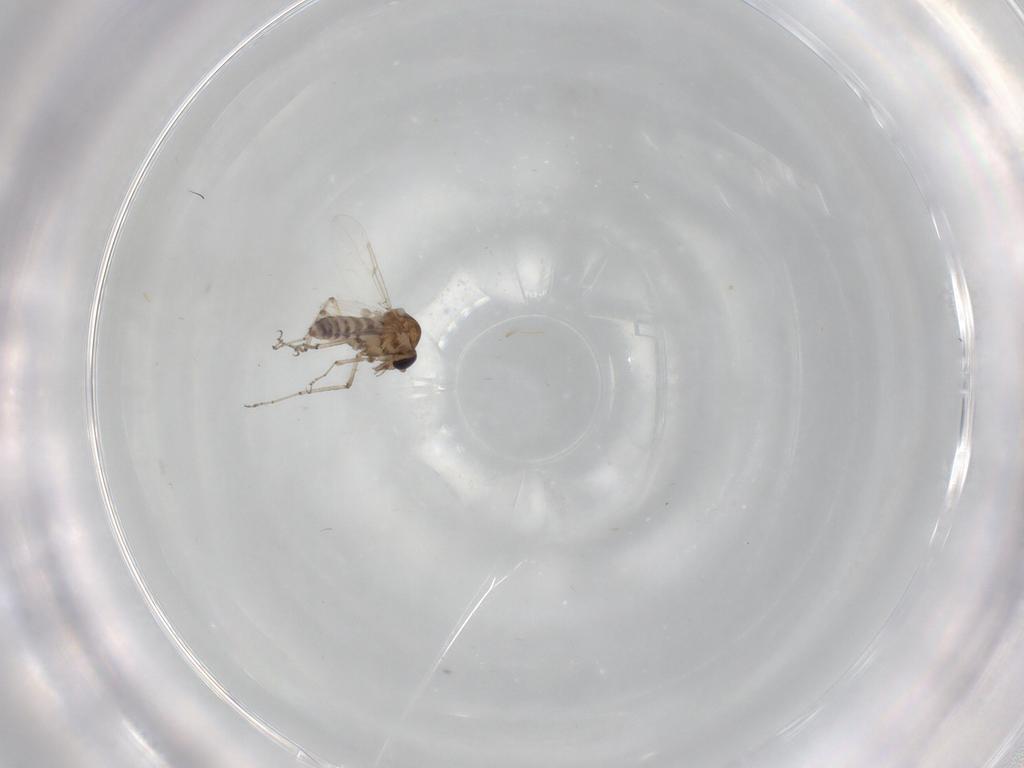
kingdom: Animalia
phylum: Arthropoda
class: Insecta
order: Diptera
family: Ceratopogonidae
